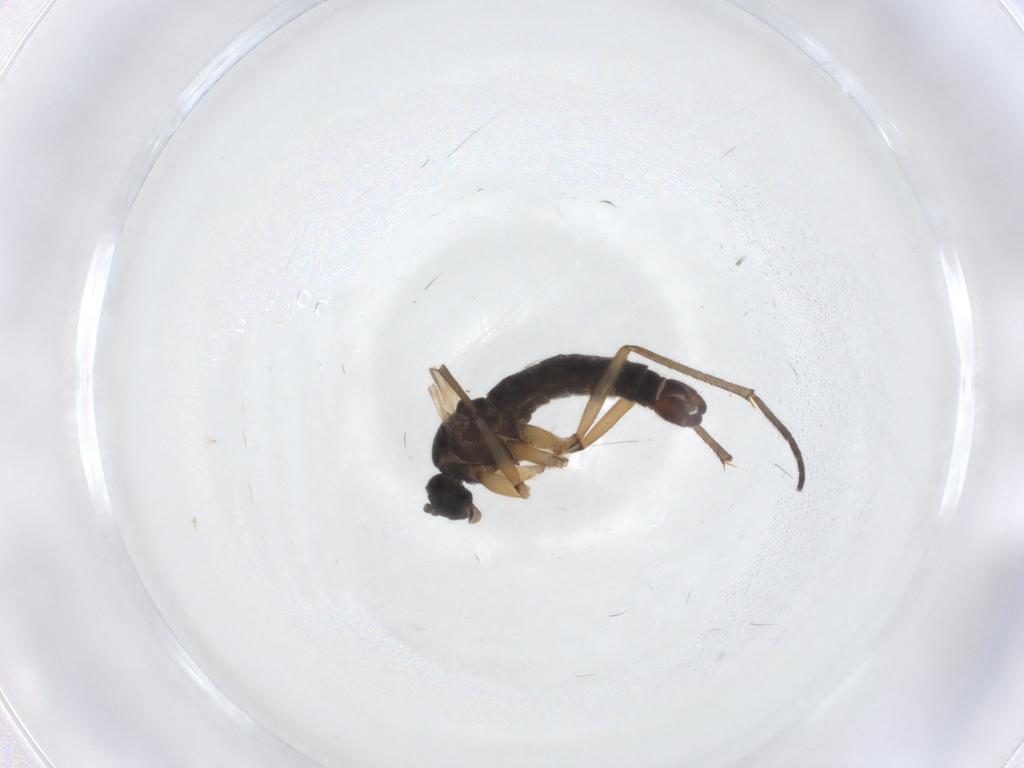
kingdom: Animalia
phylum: Arthropoda
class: Insecta
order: Diptera
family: Sciaridae
